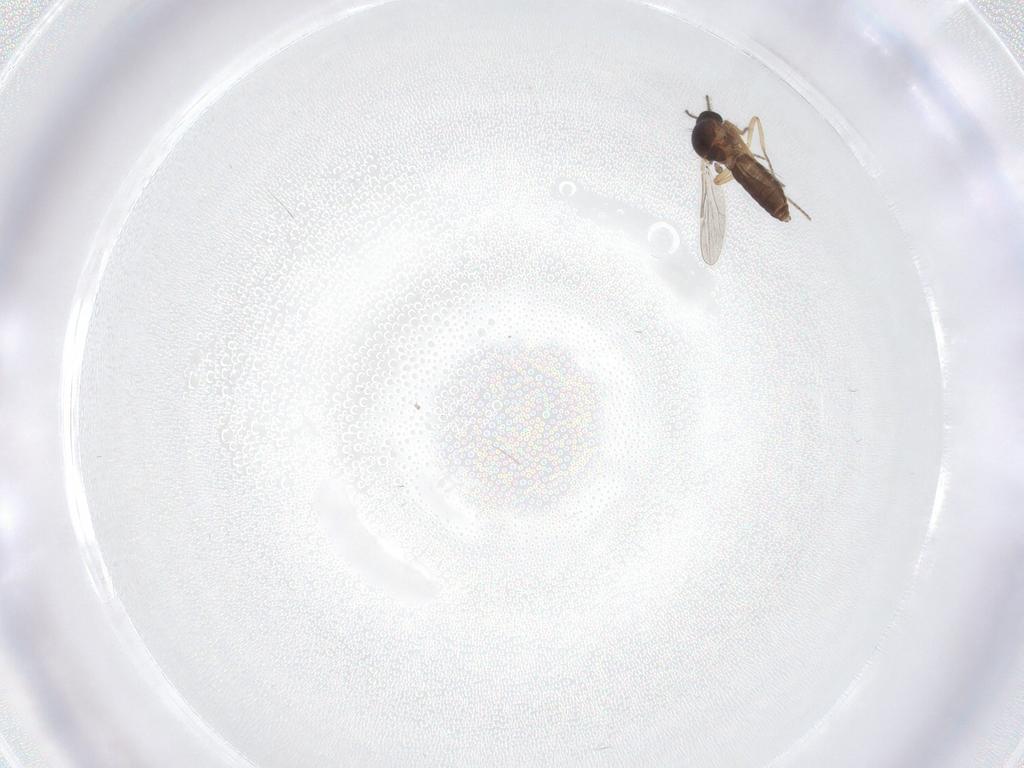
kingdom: Animalia
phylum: Arthropoda
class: Insecta
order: Diptera
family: Ceratopogonidae
